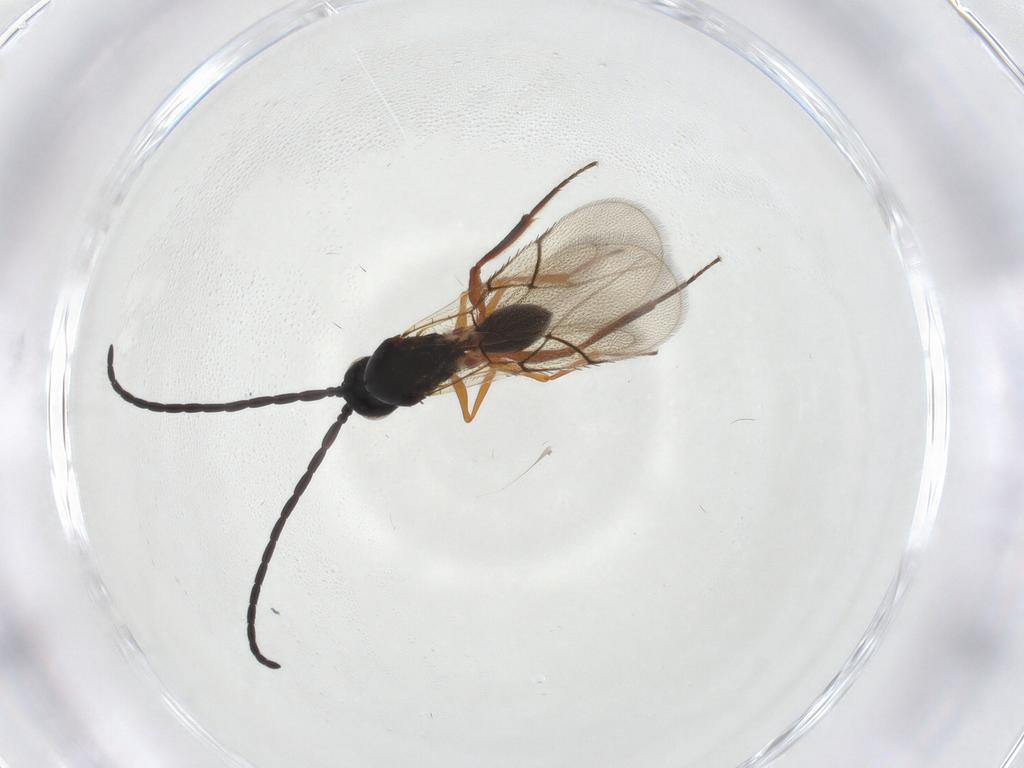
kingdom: Animalia
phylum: Arthropoda
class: Insecta
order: Hymenoptera
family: Figitidae
